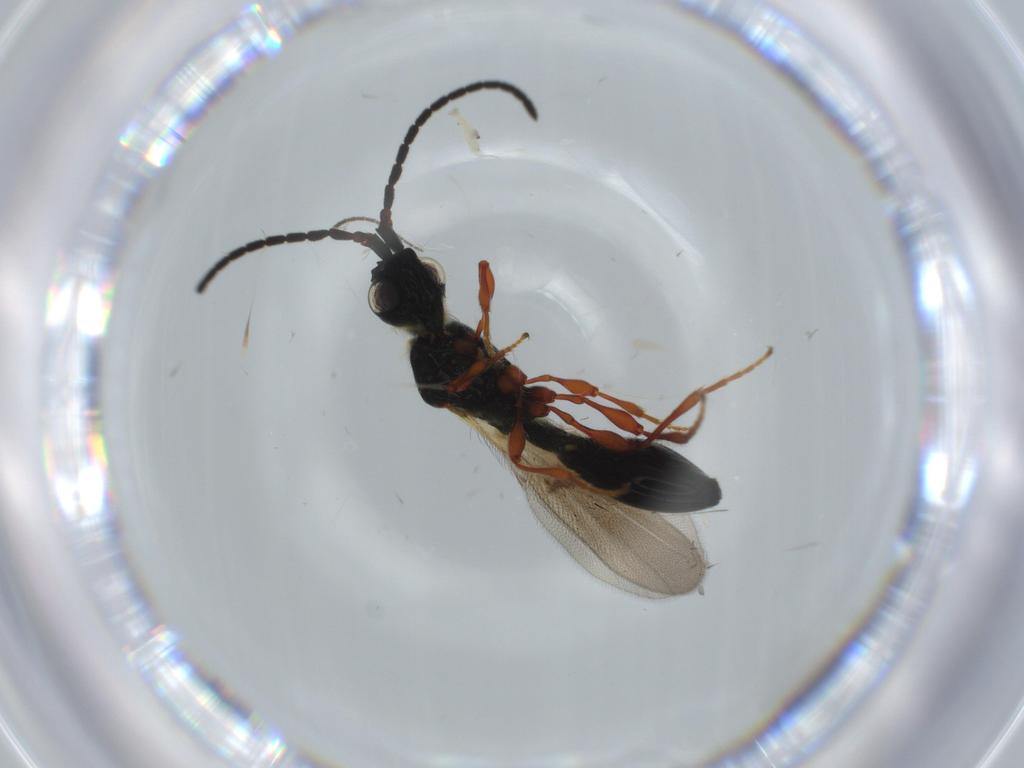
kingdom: Animalia
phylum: Arthropoda
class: Insecta
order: Hymenoptera
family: Diapriidae
